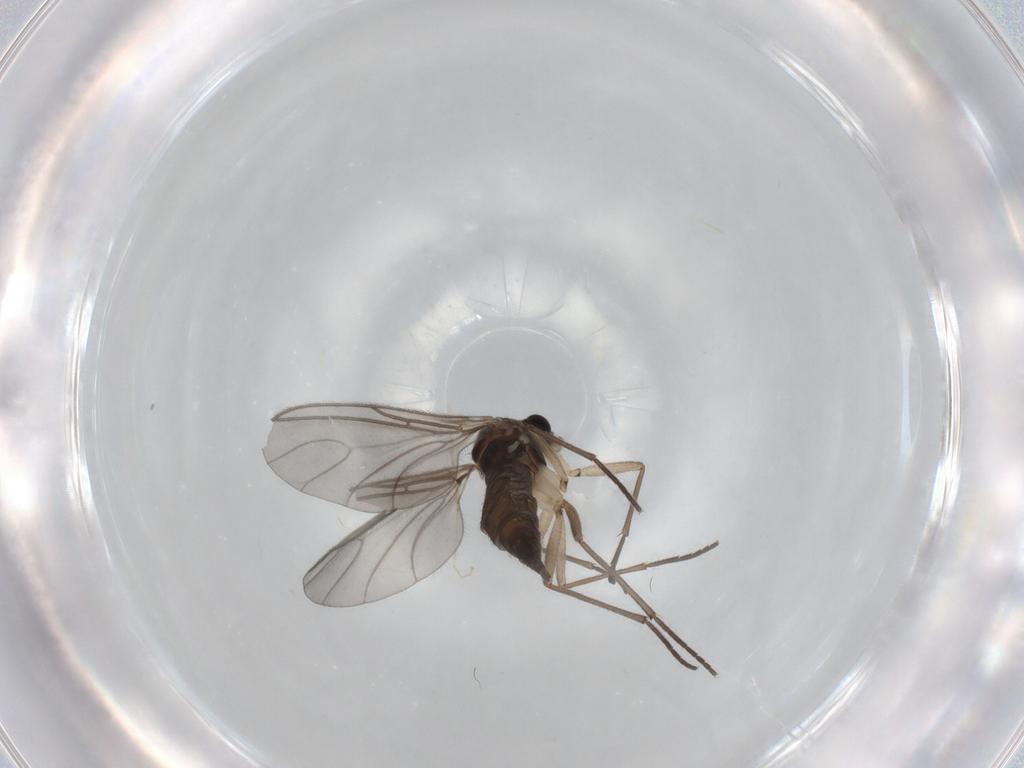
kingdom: Animalia
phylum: Arthropoda
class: Insecta
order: Diptera
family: Sciaridae
